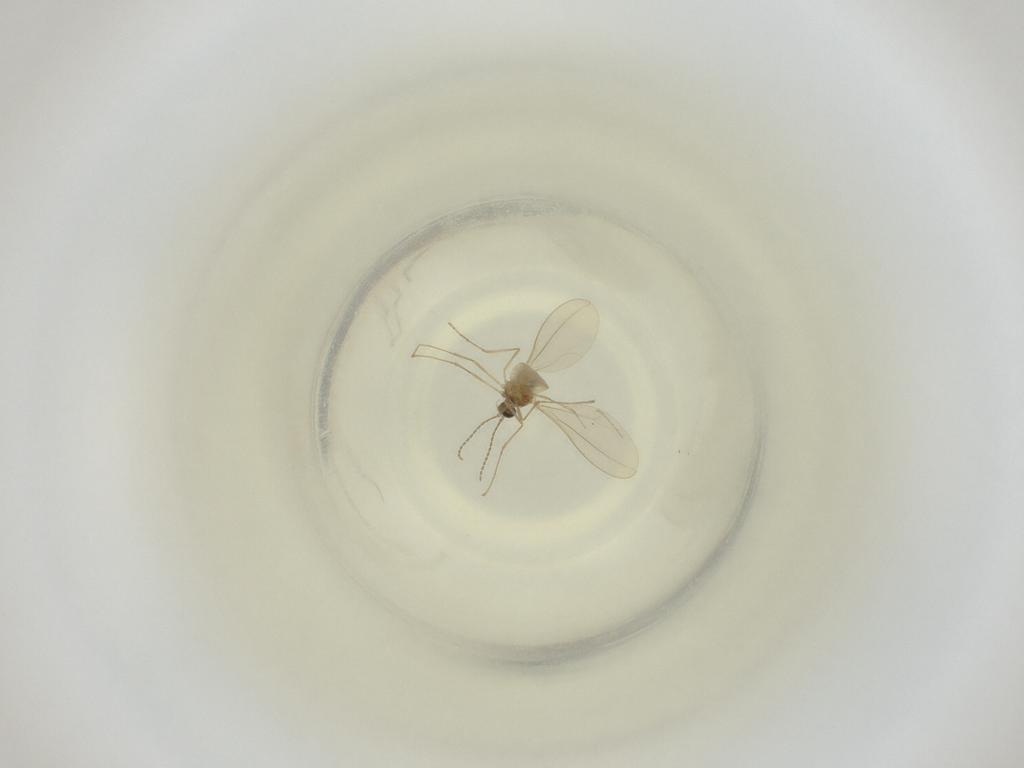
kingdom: Animalia
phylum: Arthropoda
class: Insecta
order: Diptera
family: Cecidomyiidae
